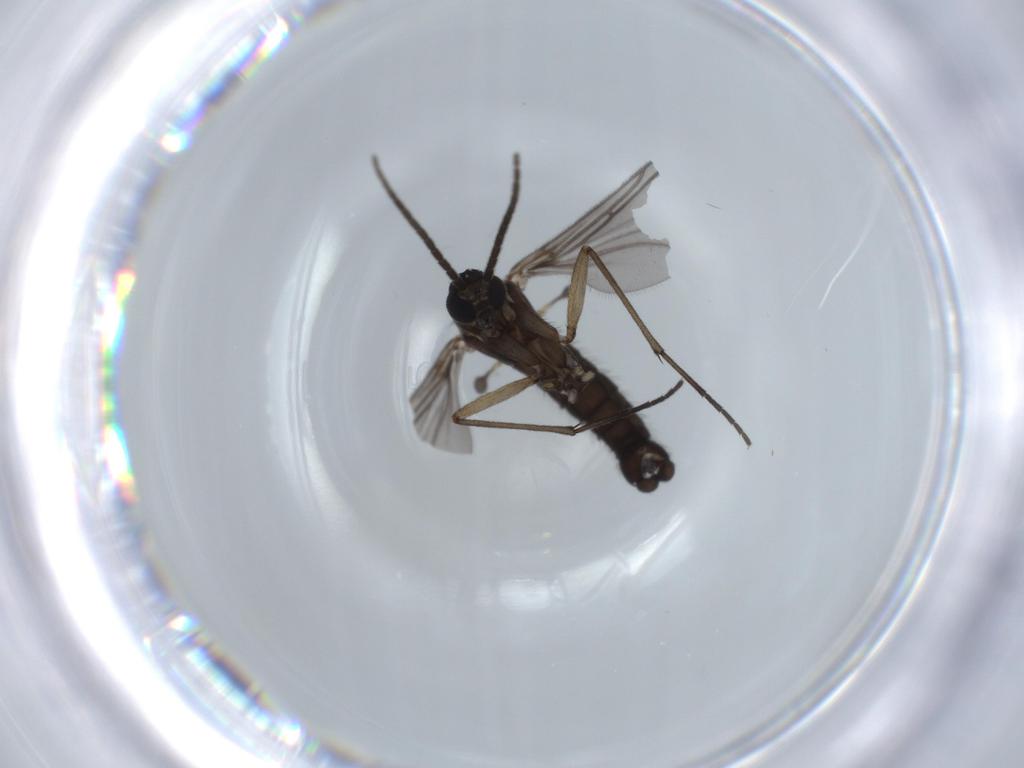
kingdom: Animalia
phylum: Arthropoda
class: Insecta
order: Diptera
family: Sciaridae
